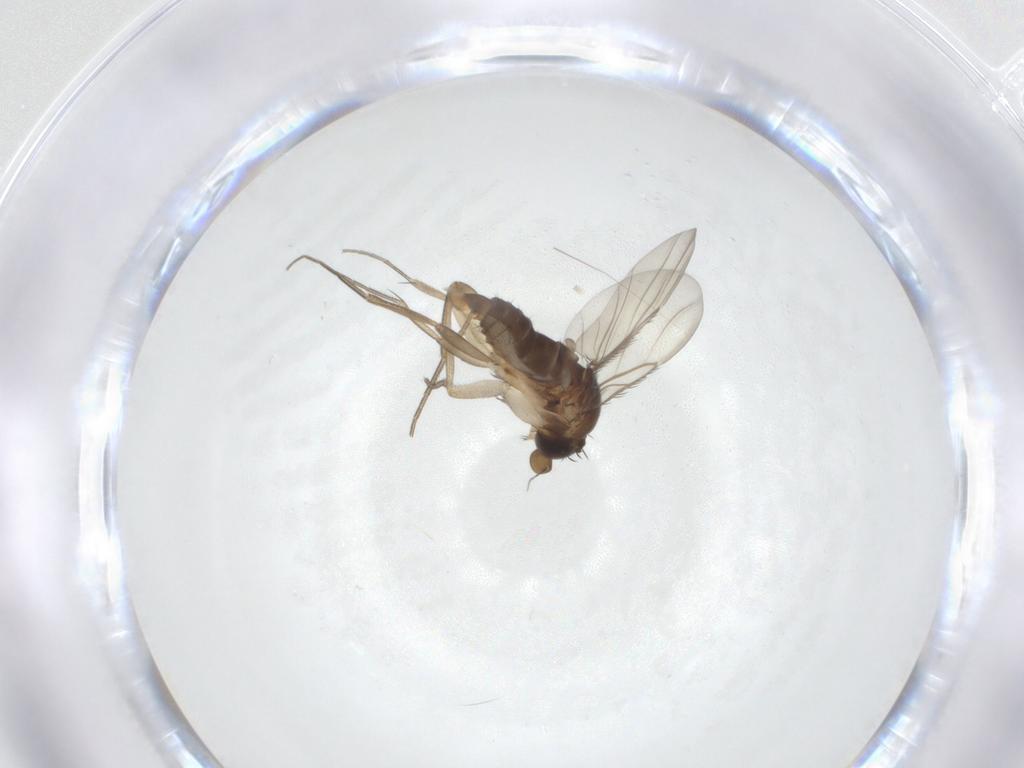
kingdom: Animalia
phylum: Arthropoda
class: Insecta
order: Diptera
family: Phoridae
